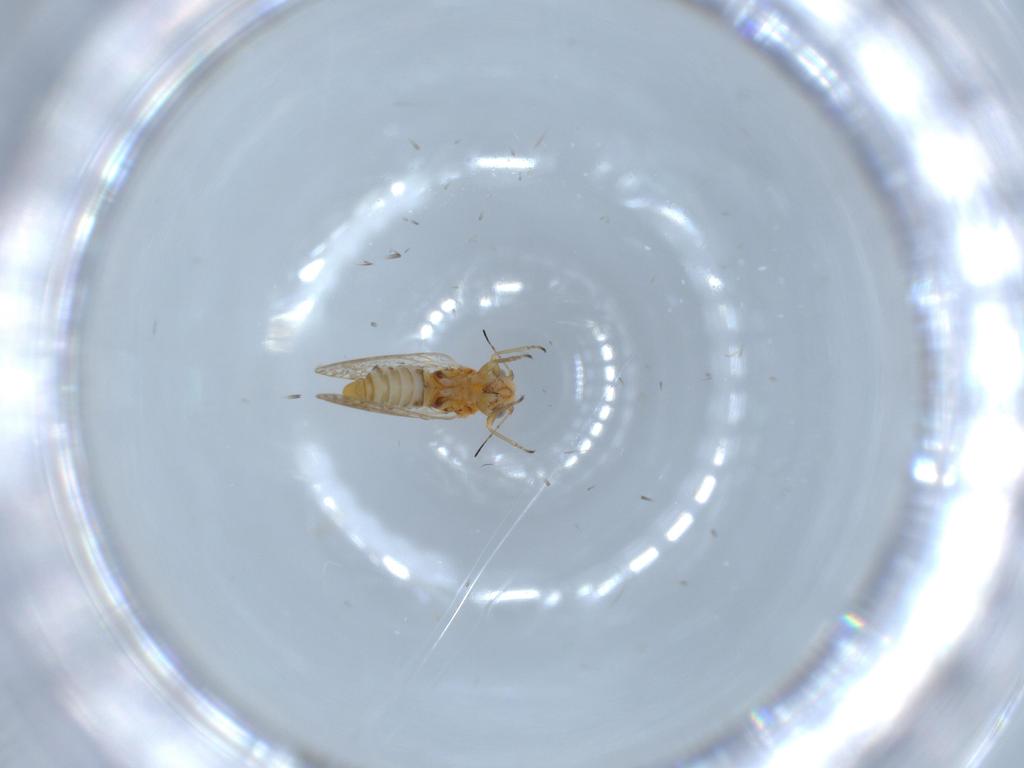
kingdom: Animalia
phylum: Arthropoda
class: Insecta
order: Hemiptera
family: Psyllidae
